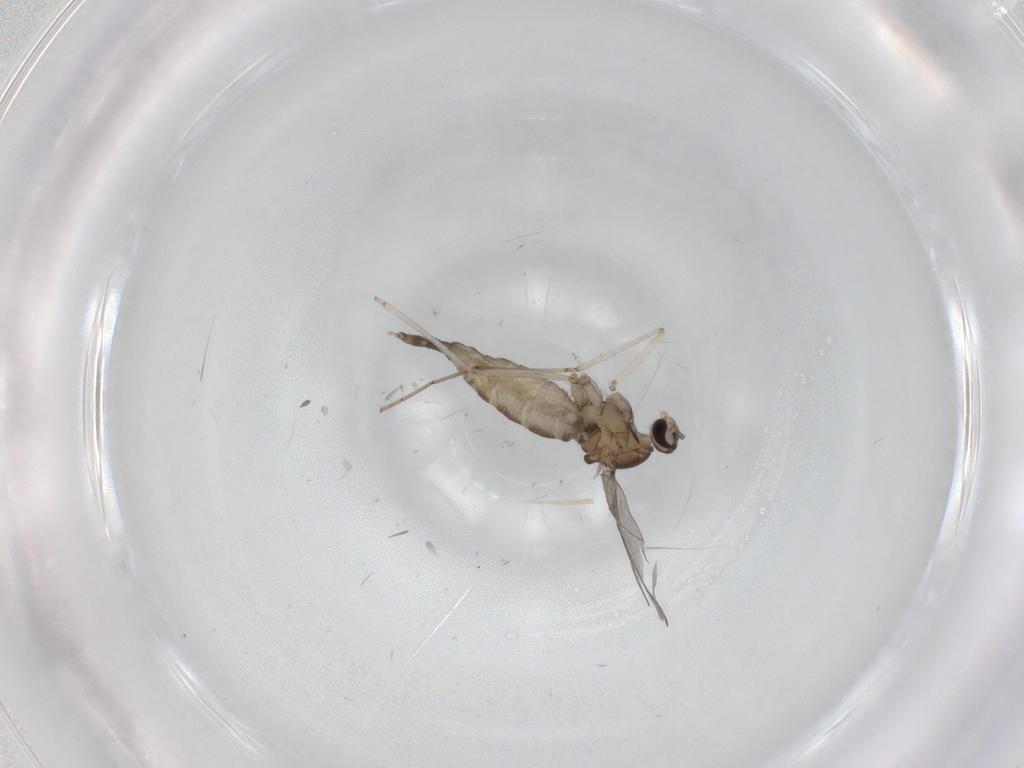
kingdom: Animalia
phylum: Arthropoda
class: Insecta
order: Diptera
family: Cecidomyiidae
